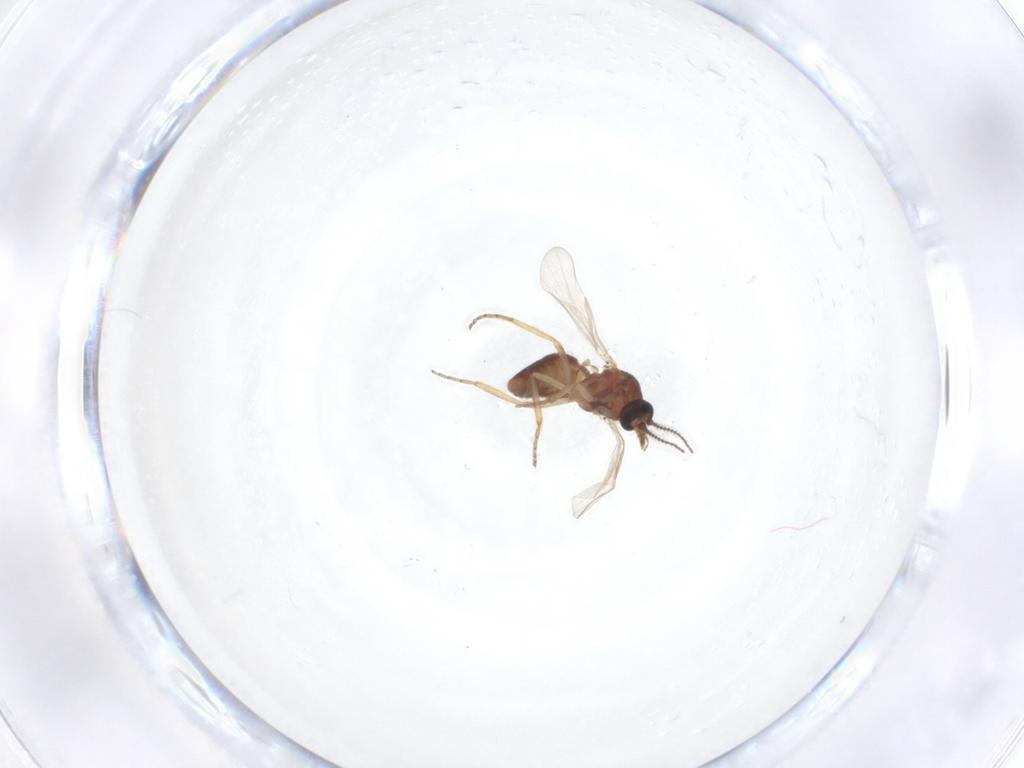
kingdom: Animalia
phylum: Arthropoda
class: Insecta
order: Diptera
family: Ceratopogonidae
